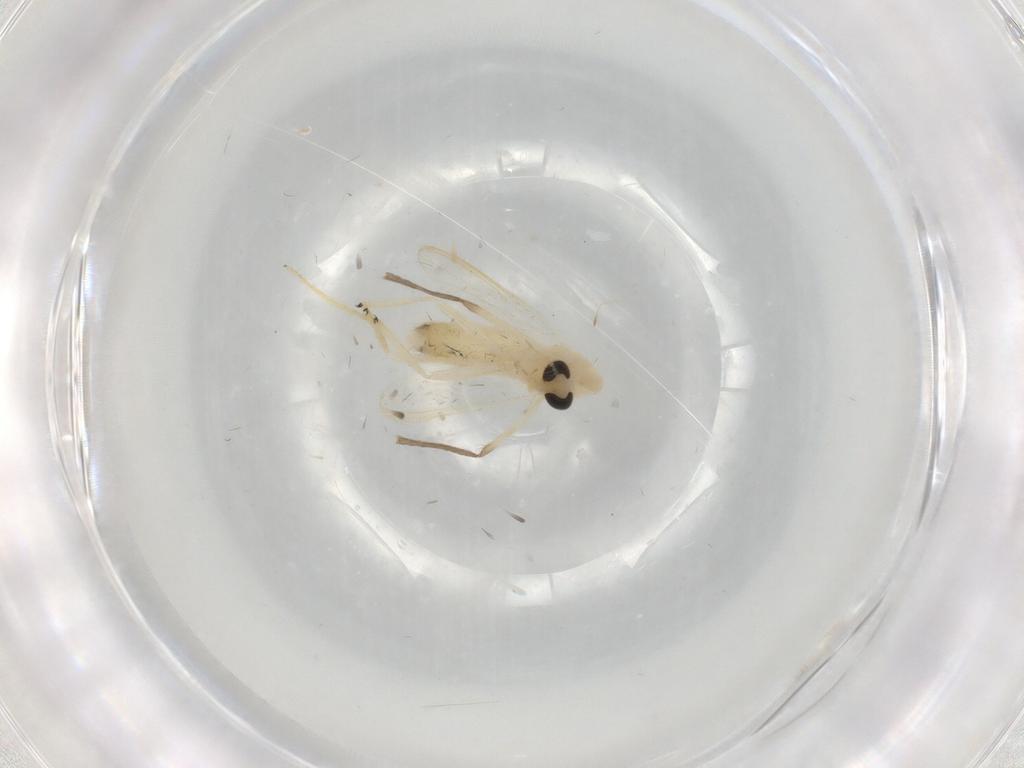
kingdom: Animalia
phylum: Arthropoda
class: Insecta
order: Diptera
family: Chironomidae
